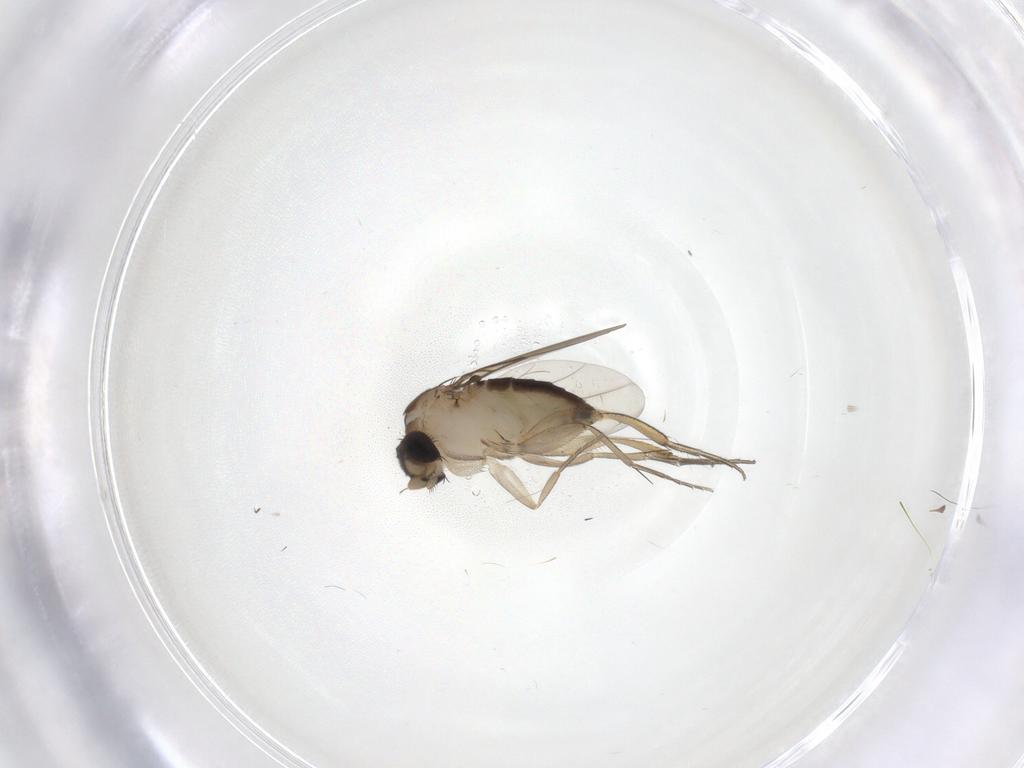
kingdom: Animalia
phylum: Arthropoda
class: Insecta
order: Diptera
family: Phoridae
